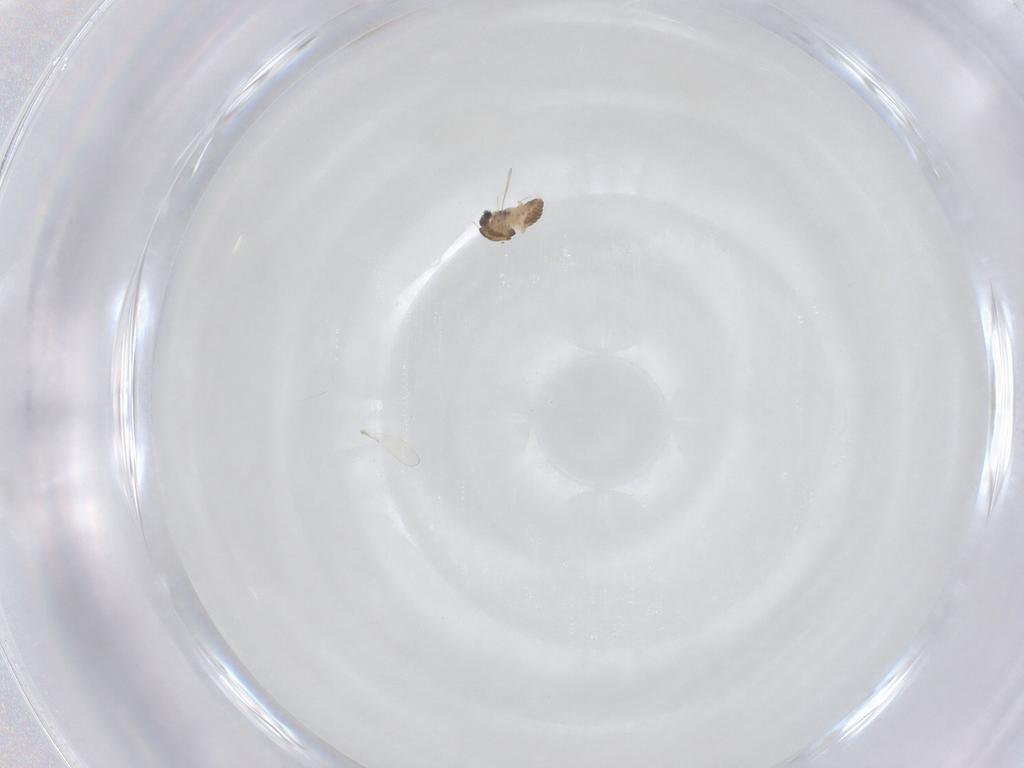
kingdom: Animalia
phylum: Arthropoda
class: Insecta
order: Diptera
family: Chironomidae
